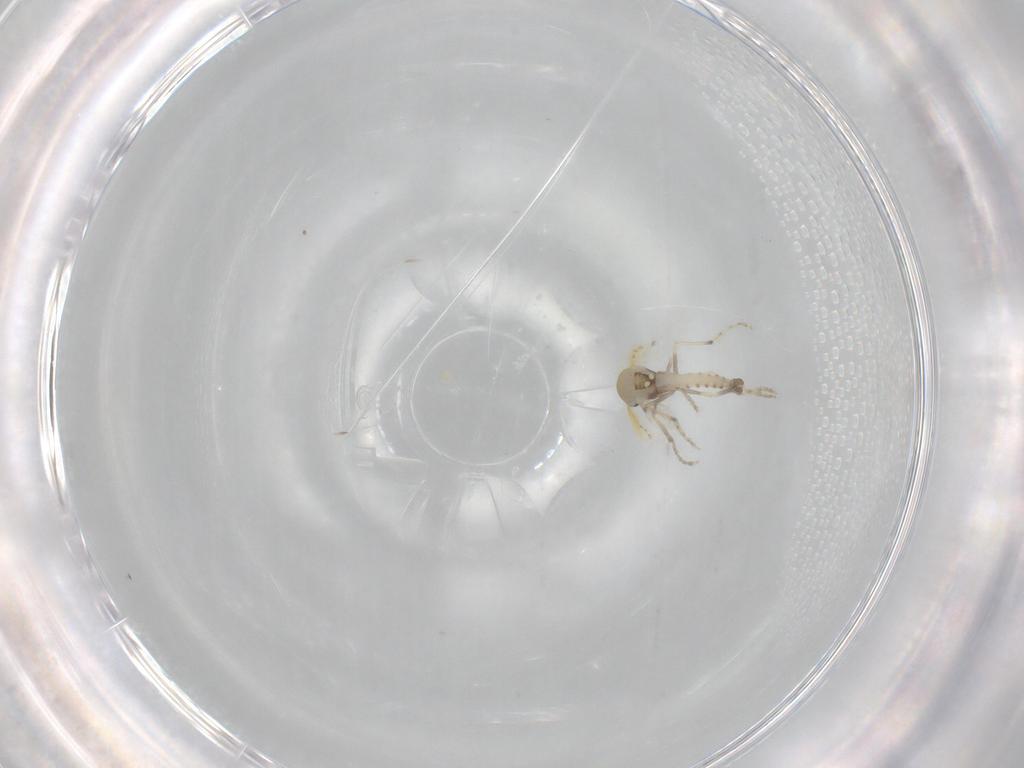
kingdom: Animalia
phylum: Arthropoda
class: Insecta
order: Diptera
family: Ceratopogonidae
